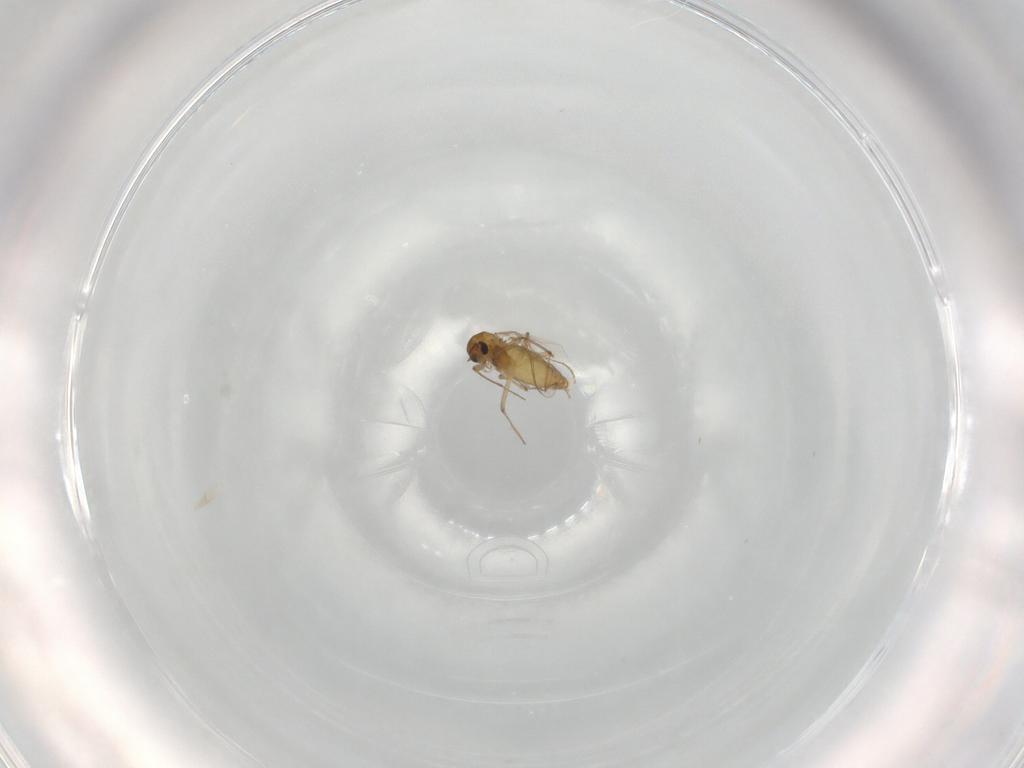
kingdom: Animalia
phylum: Arthropoda
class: Insecta
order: Diptera
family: Chironomidae
